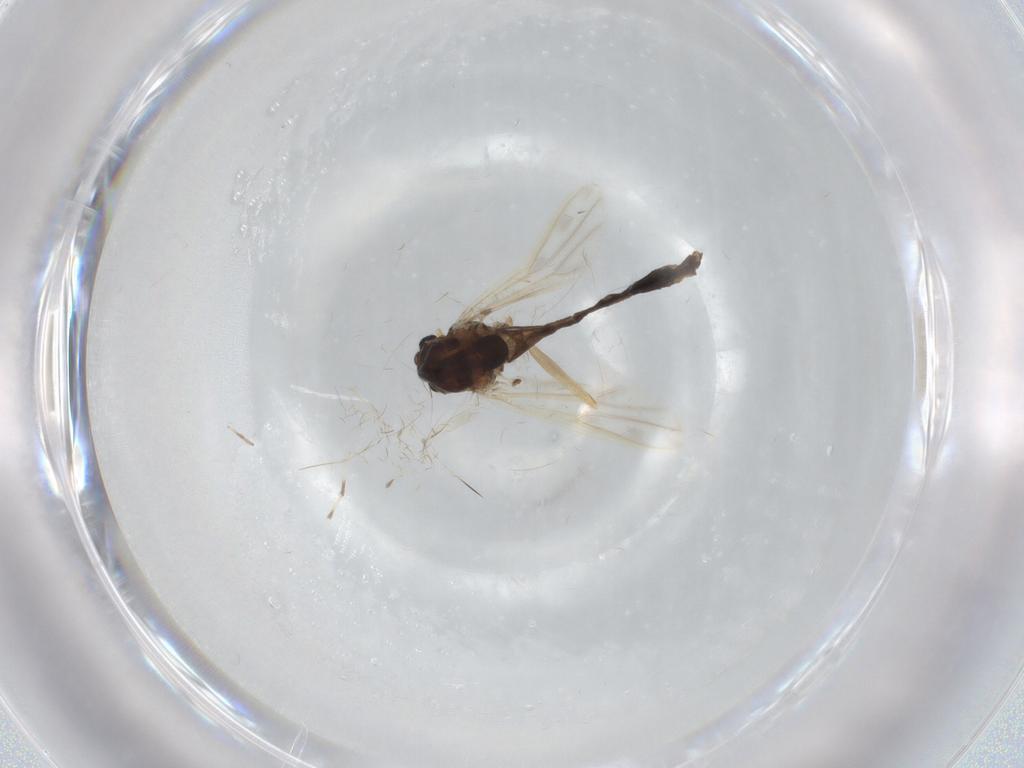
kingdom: Animalia
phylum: Arthropoda
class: Insecta
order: Diptera
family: Chironomidae
